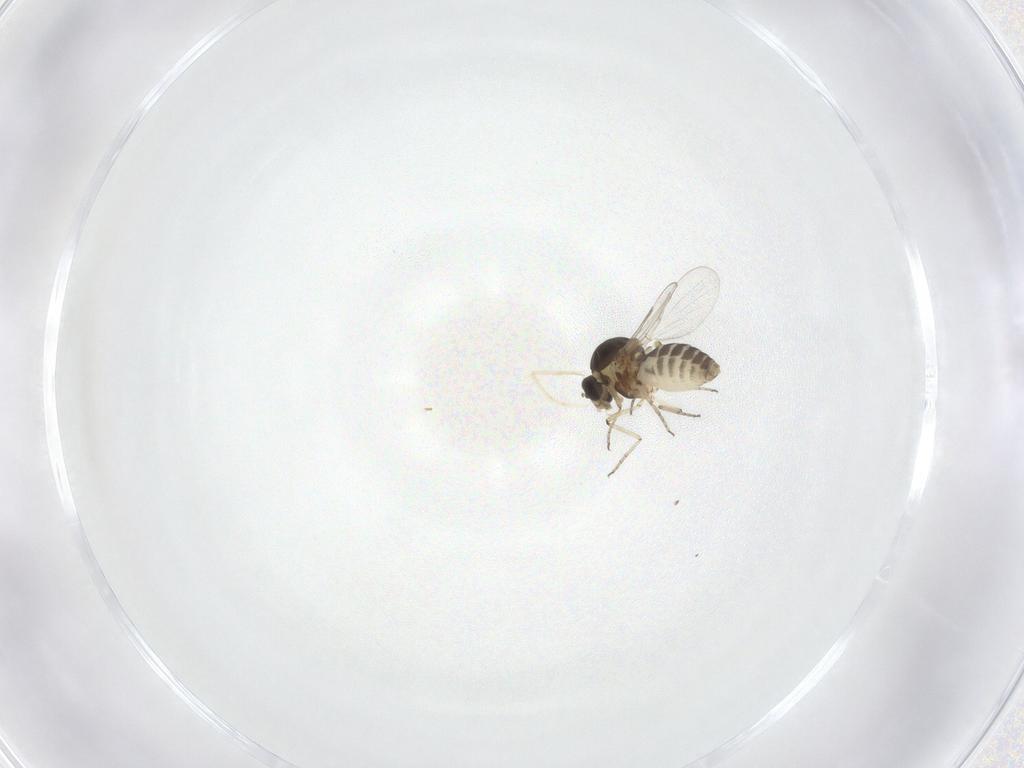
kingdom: Animalia
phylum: Arthropoda
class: Insecta
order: Diptera
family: Ceratopogonidae
